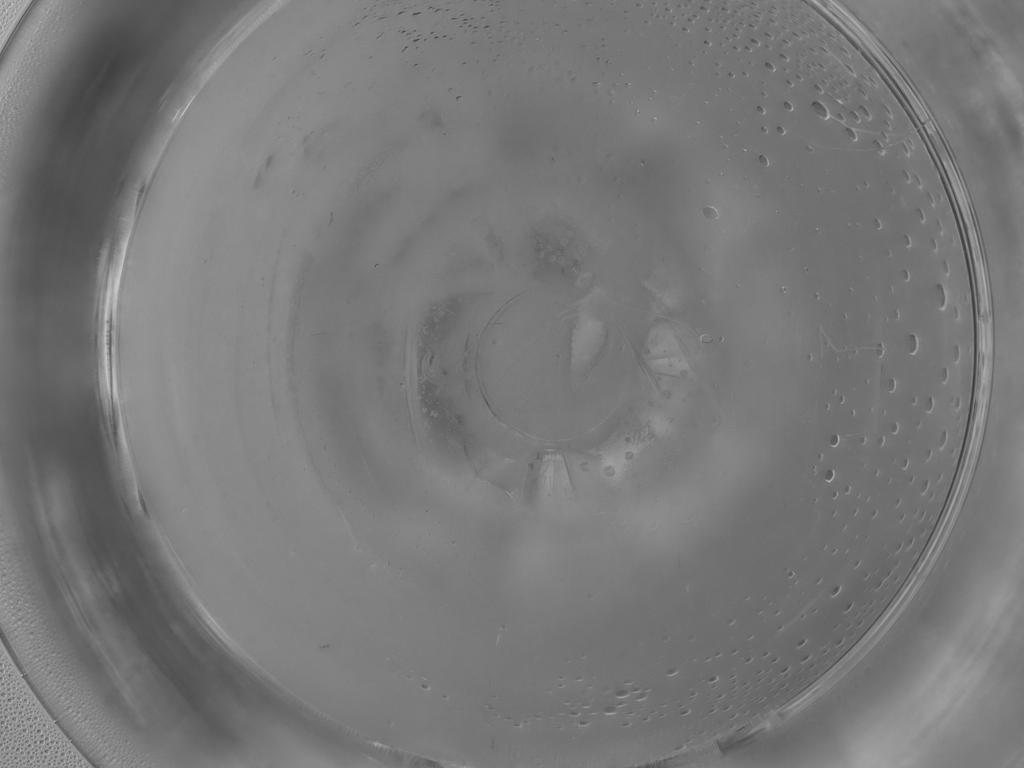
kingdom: Animalia
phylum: Arthropoda
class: Insecta
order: Diptera
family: Cecidomyiidae
